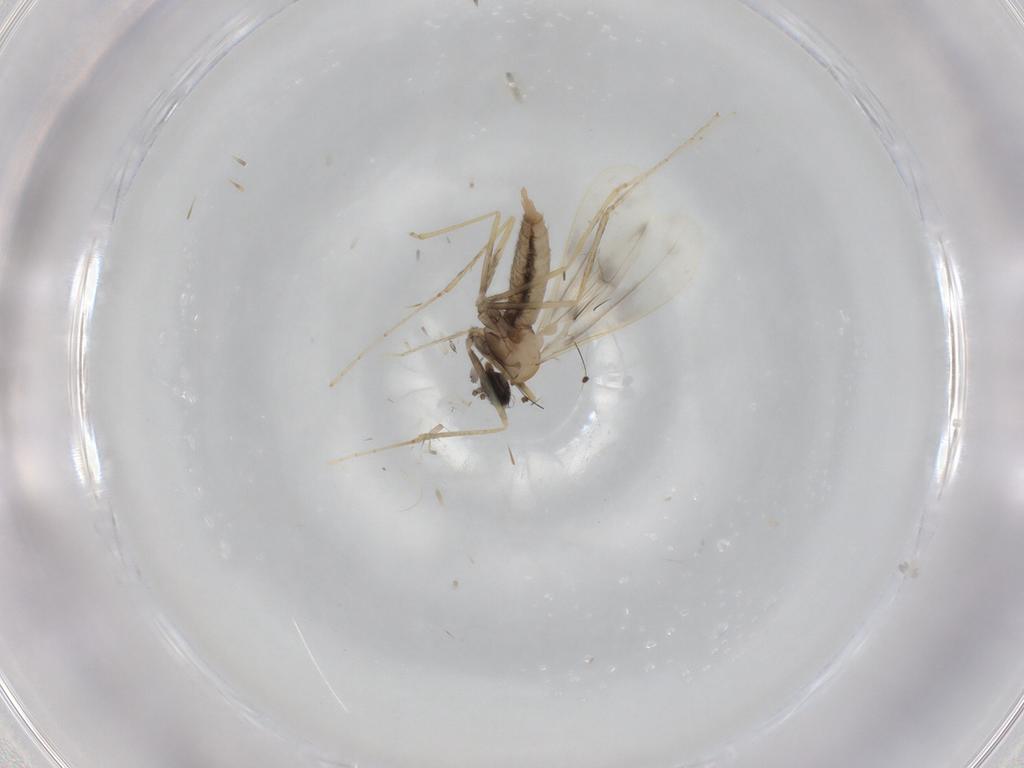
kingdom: Animalia
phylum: Arthropoda
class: Insecta
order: Diptera
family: Cecidomyiidae
